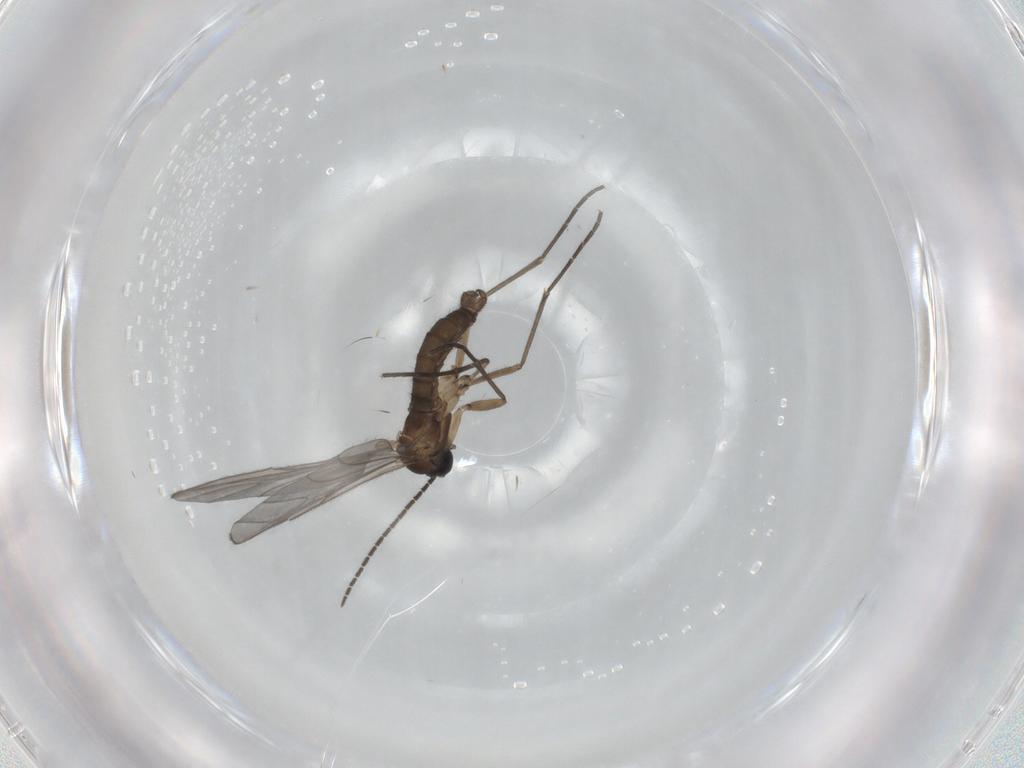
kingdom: Animalia
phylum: Arthropoda
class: Insecta
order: Diptera
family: Sciaridae
